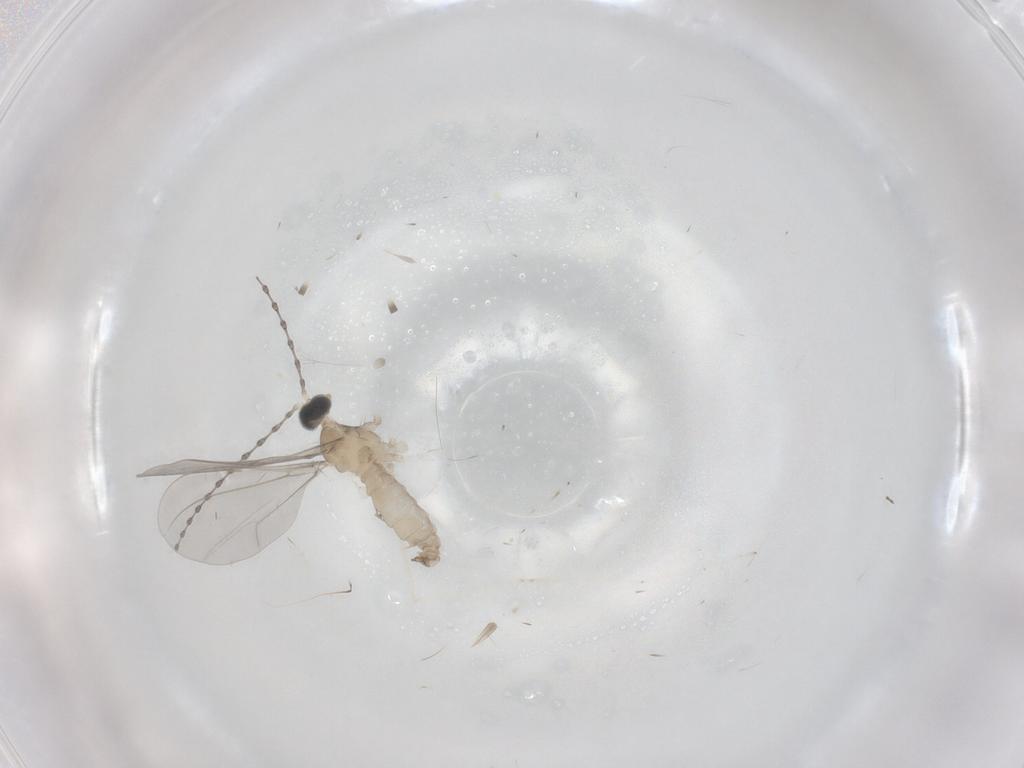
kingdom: Animalia
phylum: Arthropoda
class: Insecta
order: Diptera
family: Cecidomyiidae
